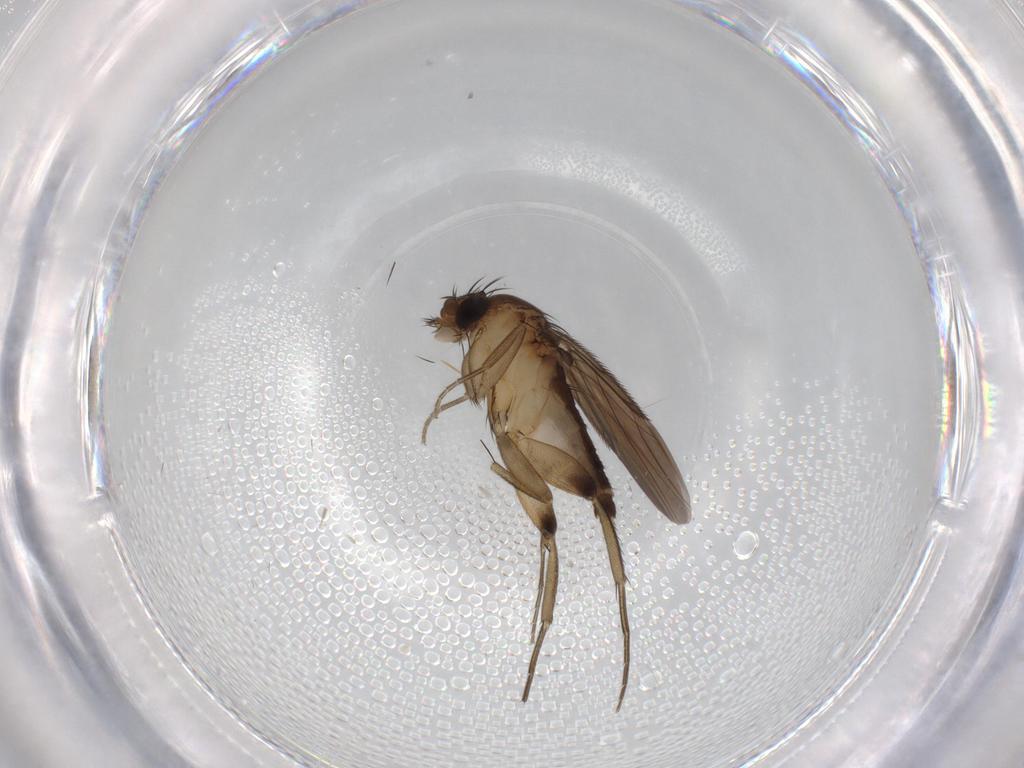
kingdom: Animalia
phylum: Arthropoda
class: Insecta
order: Diptera
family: Phoridae
